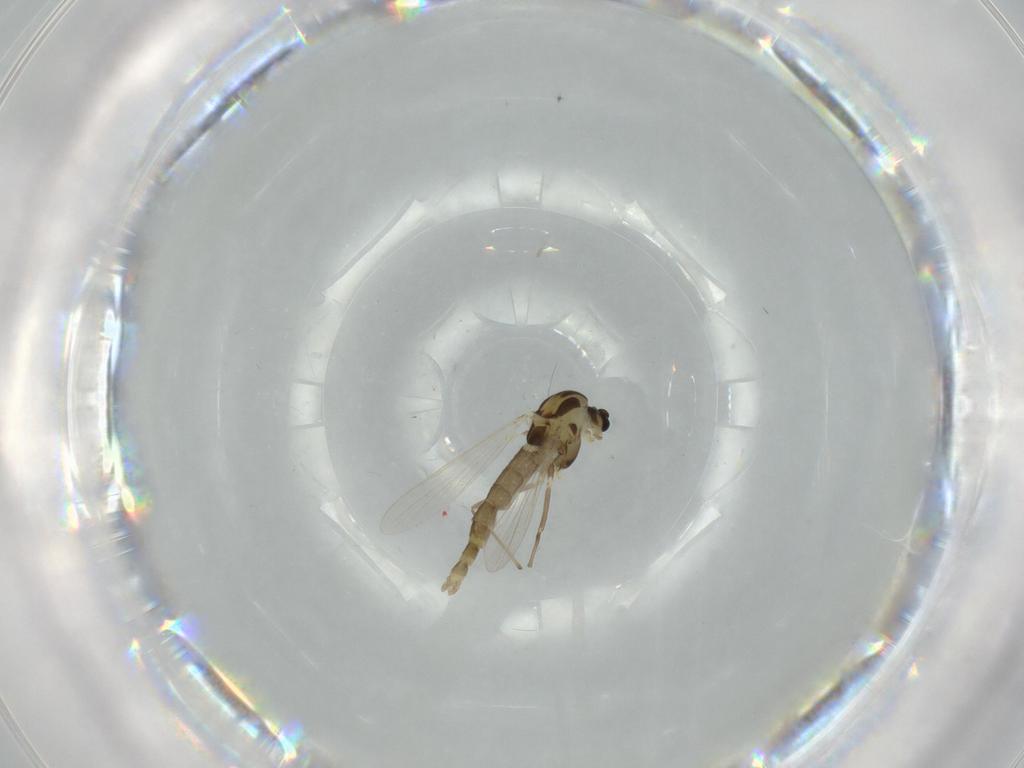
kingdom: Animalia
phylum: Arthropoda
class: Insecta
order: Diptera
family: Chironomidae
